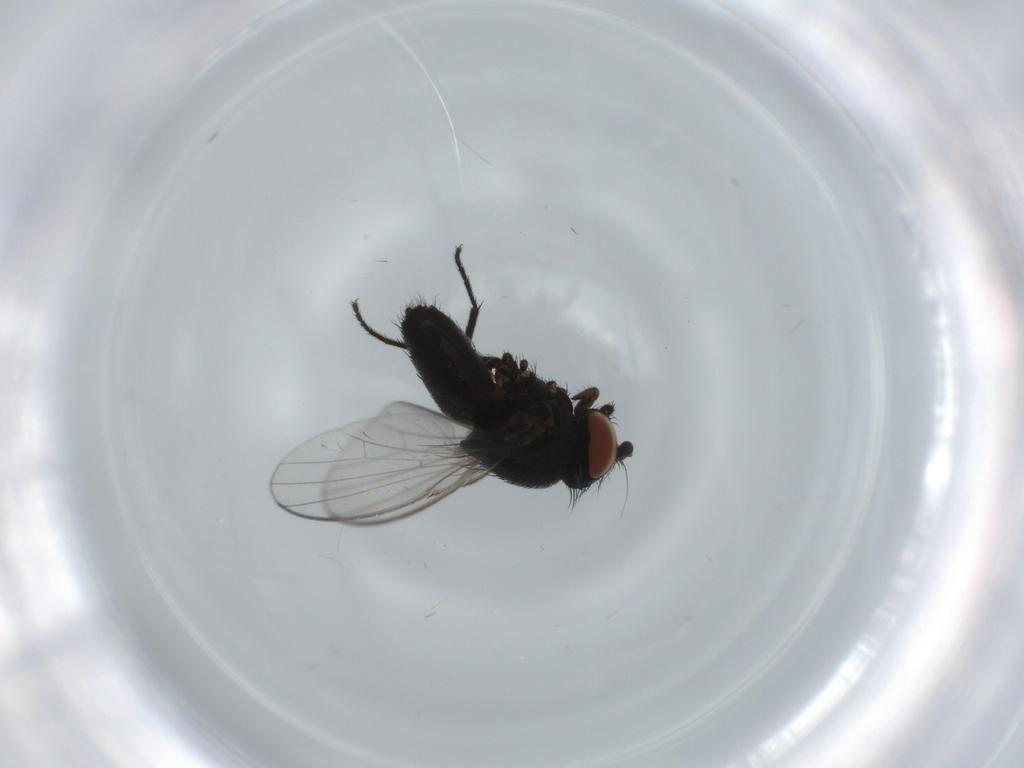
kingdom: Animalia
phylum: Arthropoda
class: Insecta
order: Diptera
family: Milichiidae
